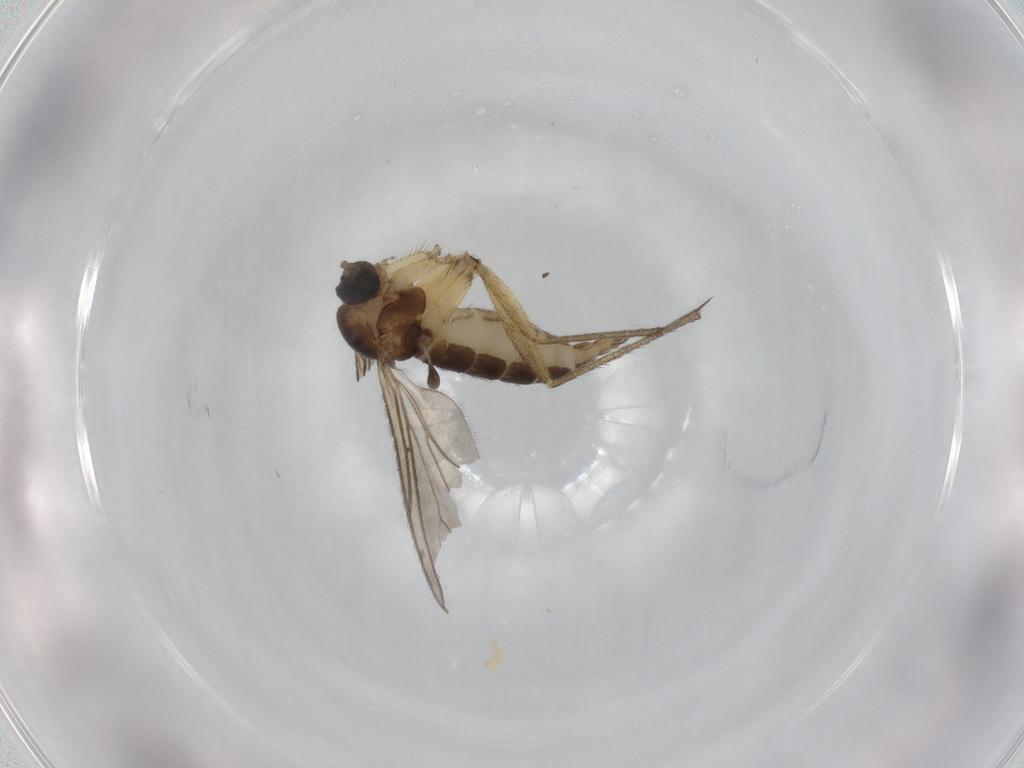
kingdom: Animalia
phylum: Arthropoda
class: Insecta
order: Diptera
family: Sciaridae
